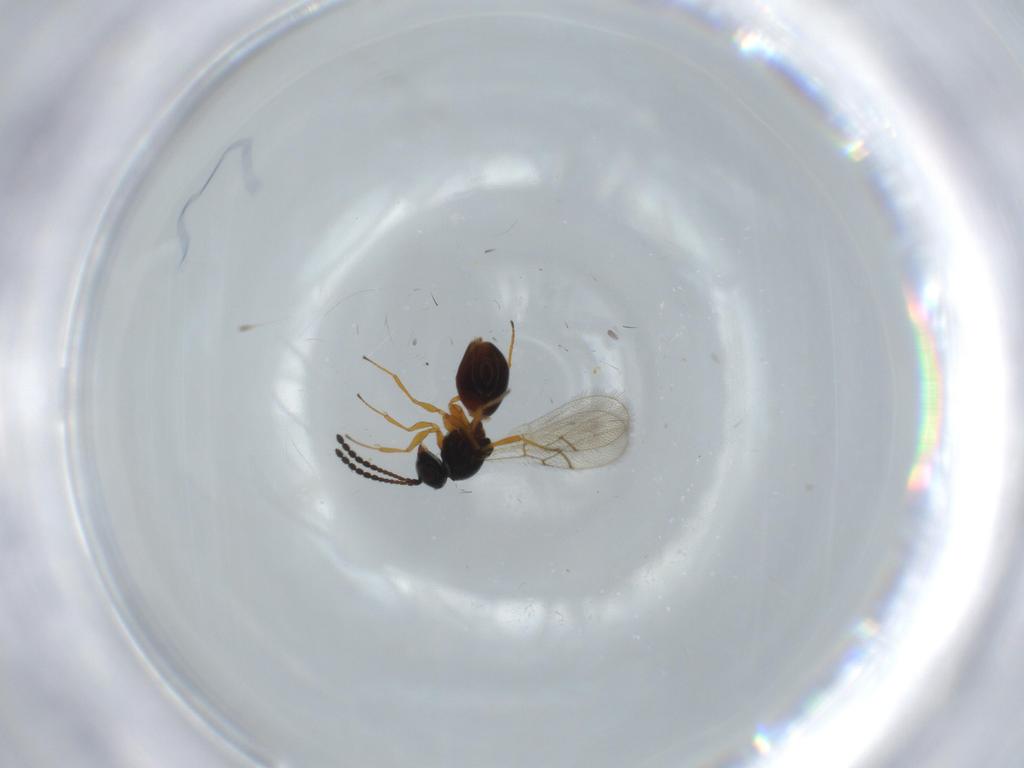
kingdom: Animalia
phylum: Arthropoda
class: Insecta
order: Hymenoptera
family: Figitidae
